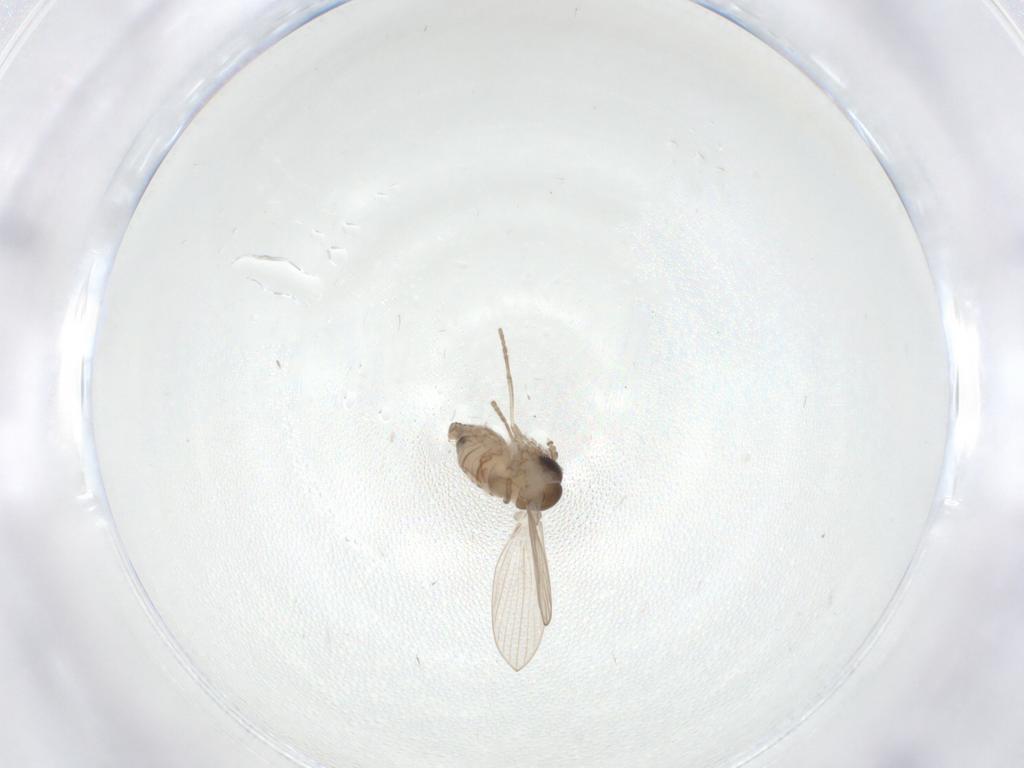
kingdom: Animalia
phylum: Arthropoda
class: Insecta
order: Diptera
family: Psychodidae
